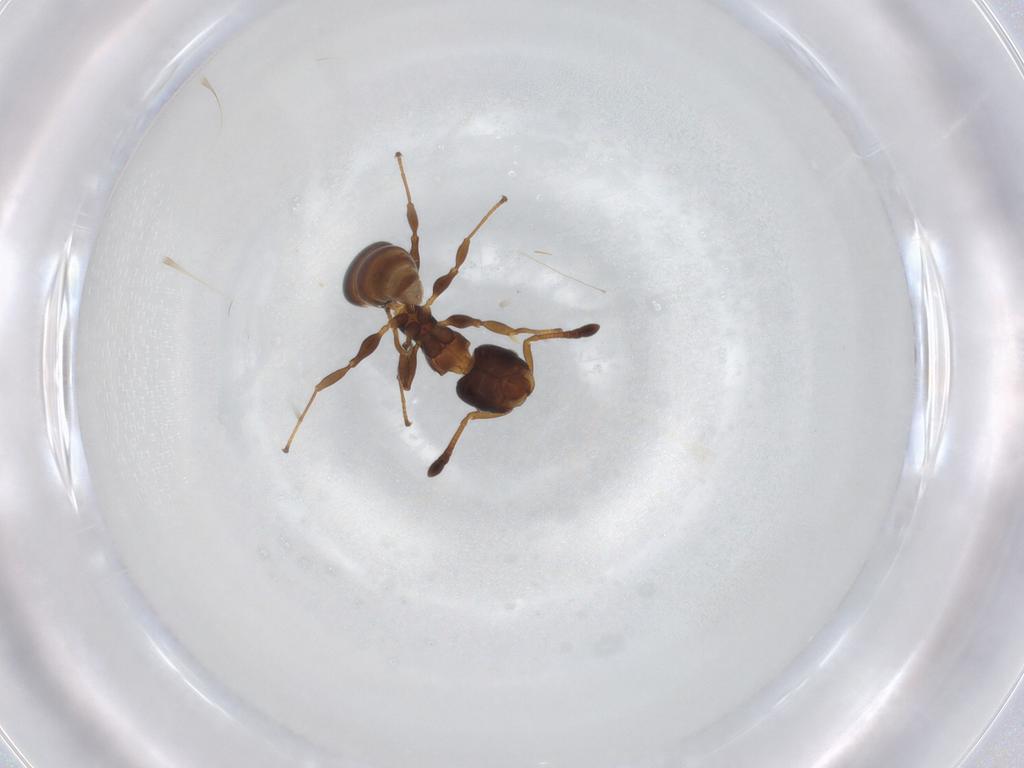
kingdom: Animalia
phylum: Arthropoda
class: Insecta
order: Hymenoptera
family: Formicidae
